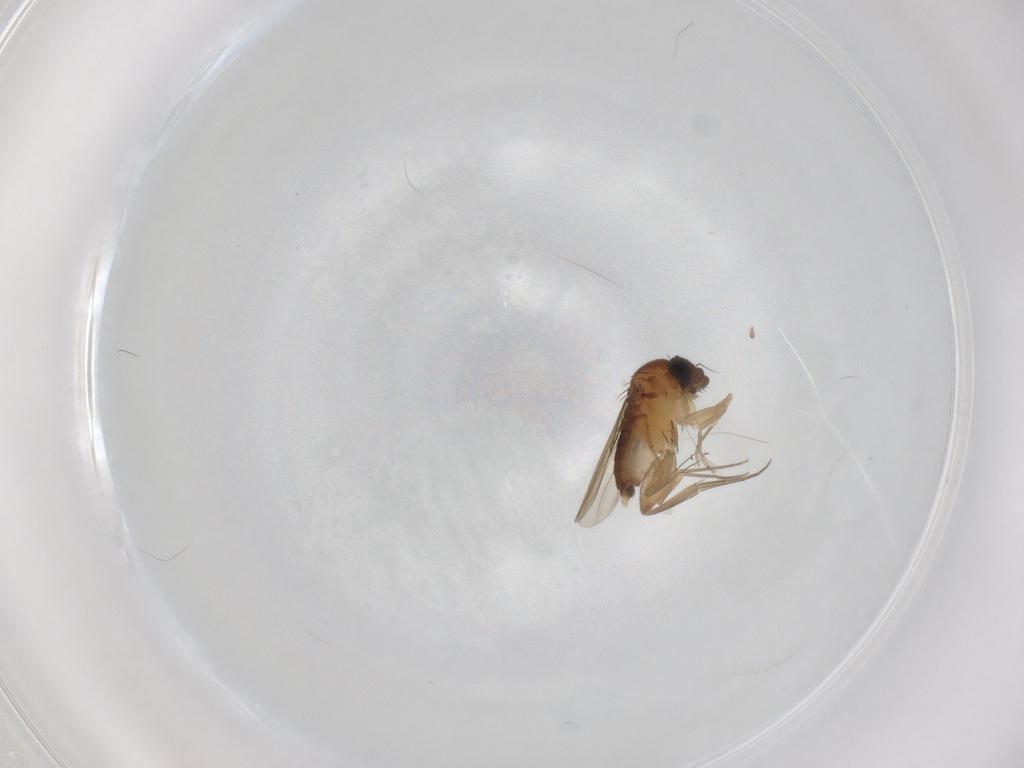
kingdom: Animalia
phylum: Arthropoda
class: Insecta
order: Diptera
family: Phoridae
